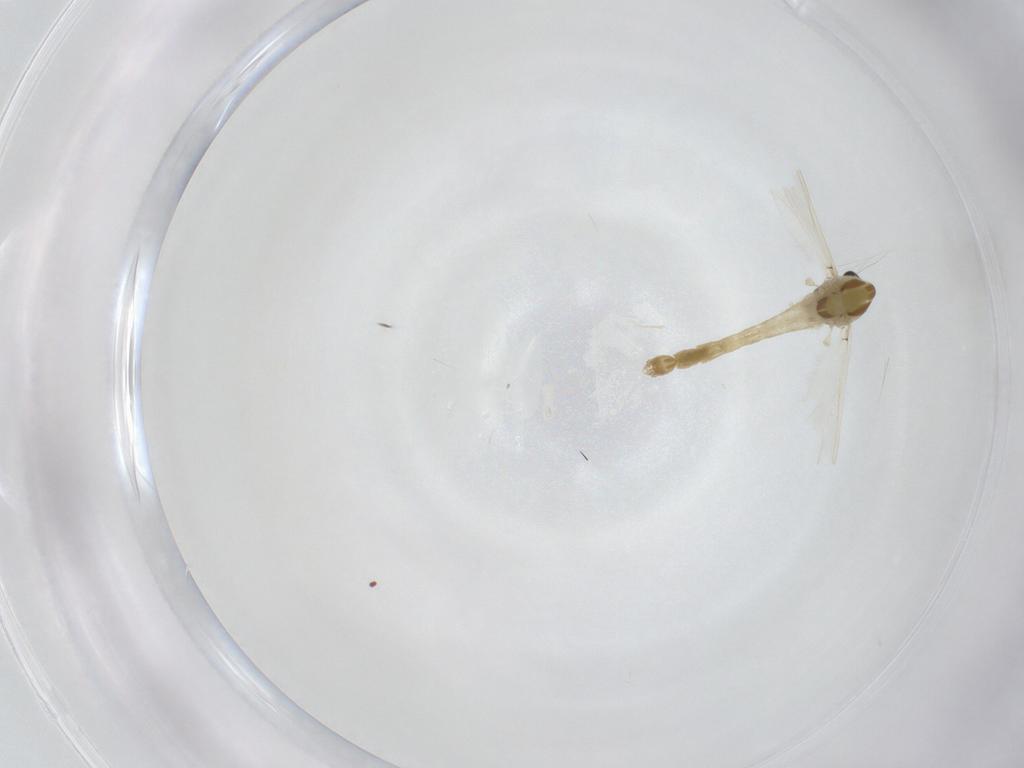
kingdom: Animalia
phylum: Arthropoda
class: Insecta
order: Diptera
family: Chironomidae
